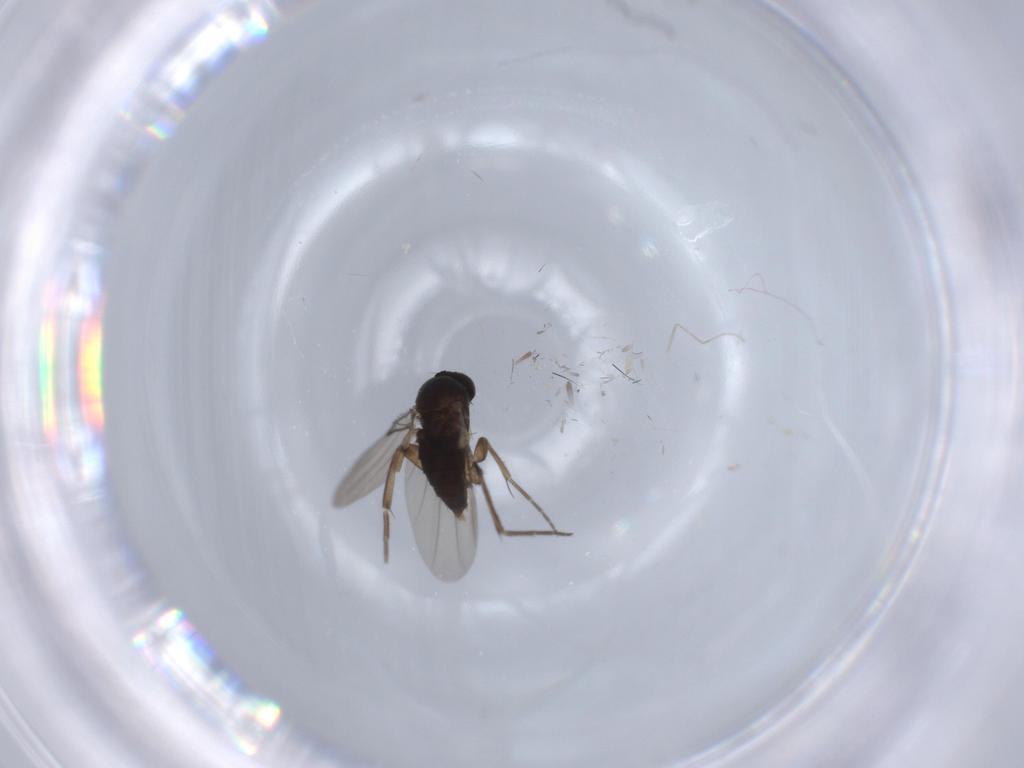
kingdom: Animalia
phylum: Arthropoda
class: Insecta
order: Diptera
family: Phoridae
